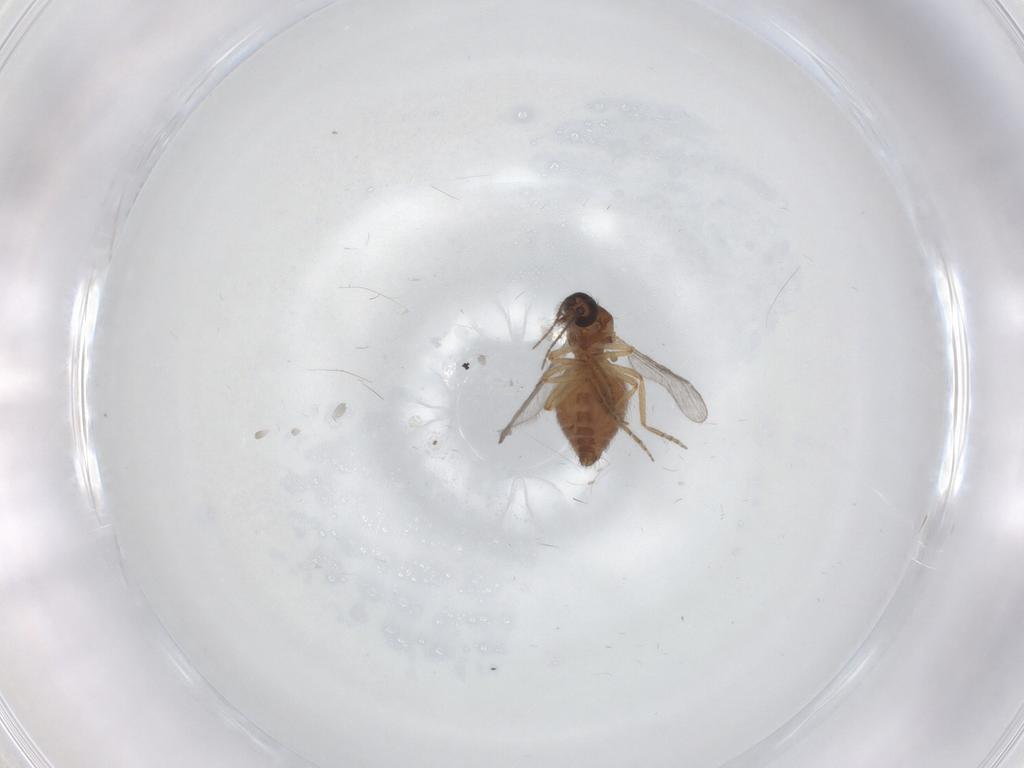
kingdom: Animalia
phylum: Arthropoda
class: Insecta
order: Diptera
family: Ceratopogonidae
